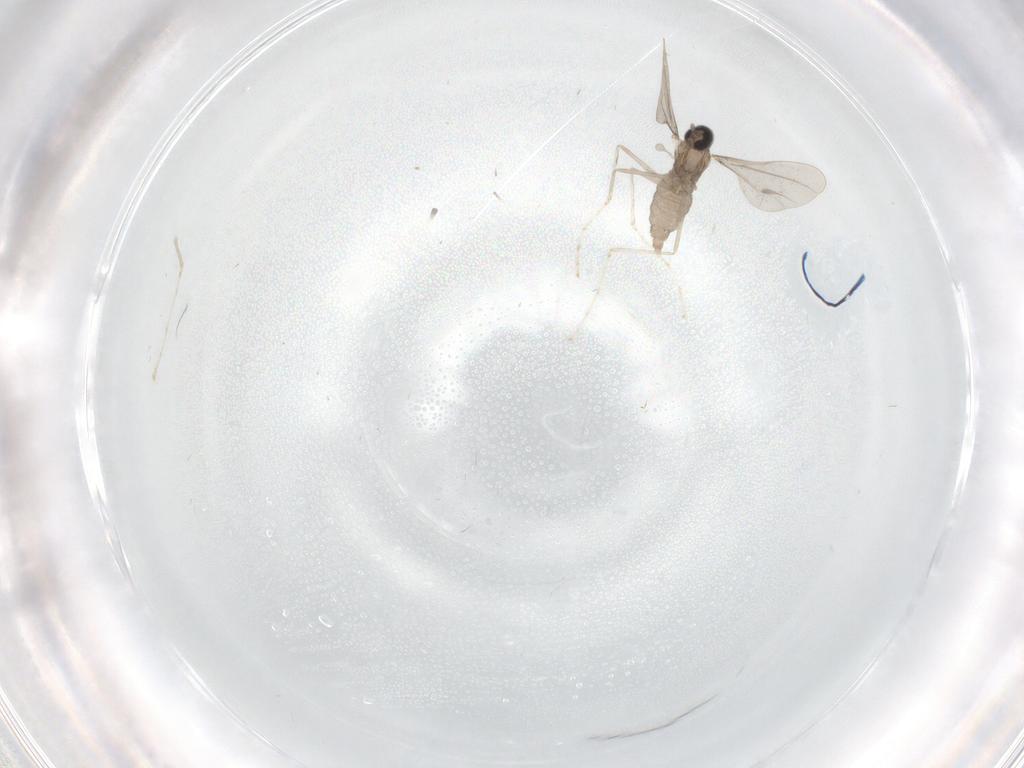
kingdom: Animalia
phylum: Arthropoda
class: Insecta
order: Diptera
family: Cecidomyiidae
